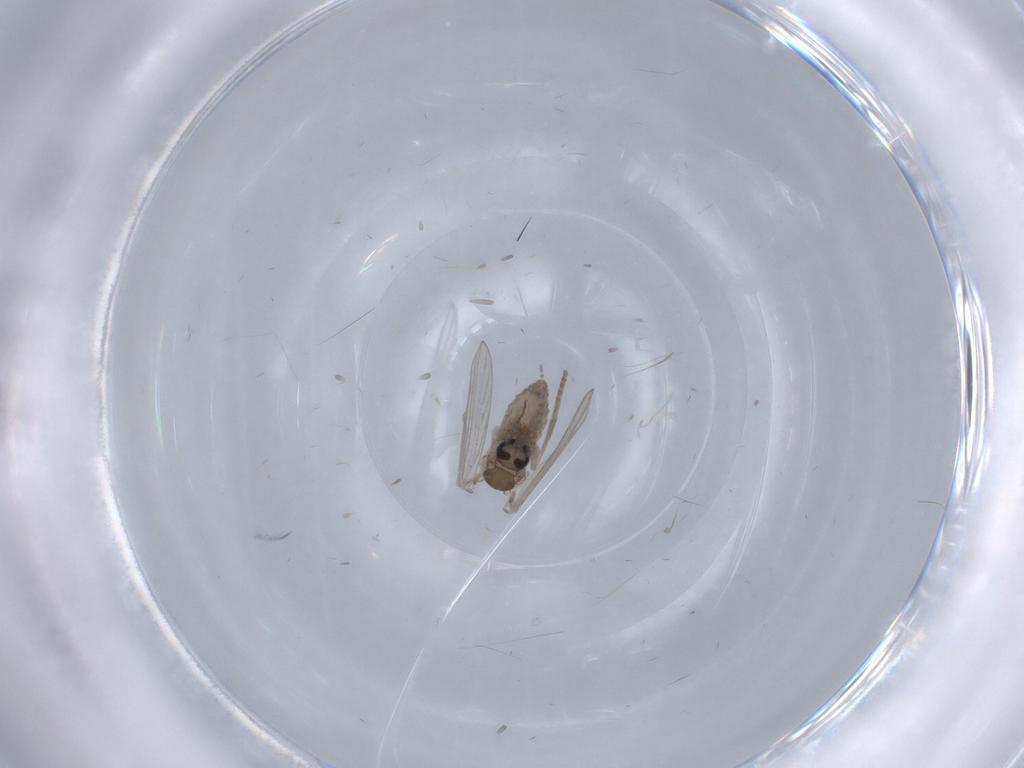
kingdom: Animalia
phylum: Arthropoda
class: Insecta
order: Diptera
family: Psychodidae
